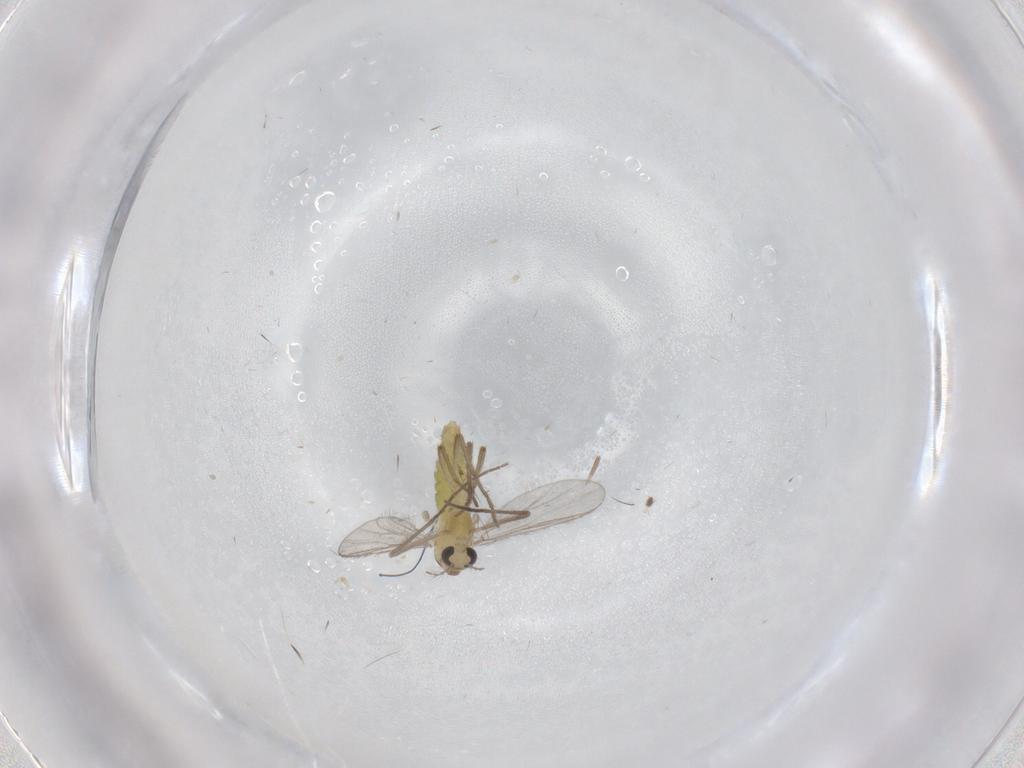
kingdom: Animalia
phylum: Arthropoda
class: Insecta
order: Diptera
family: Chironomidae
